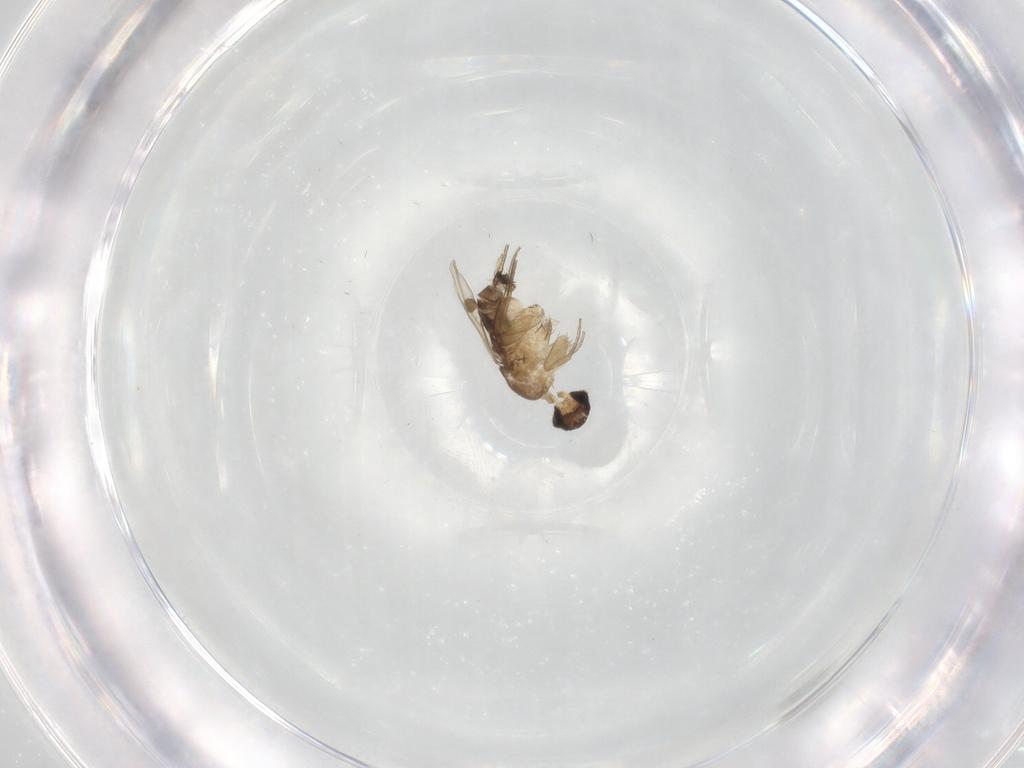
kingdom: Animalia
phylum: Arthropoda
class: Insecta
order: Diptera
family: Phoridae
